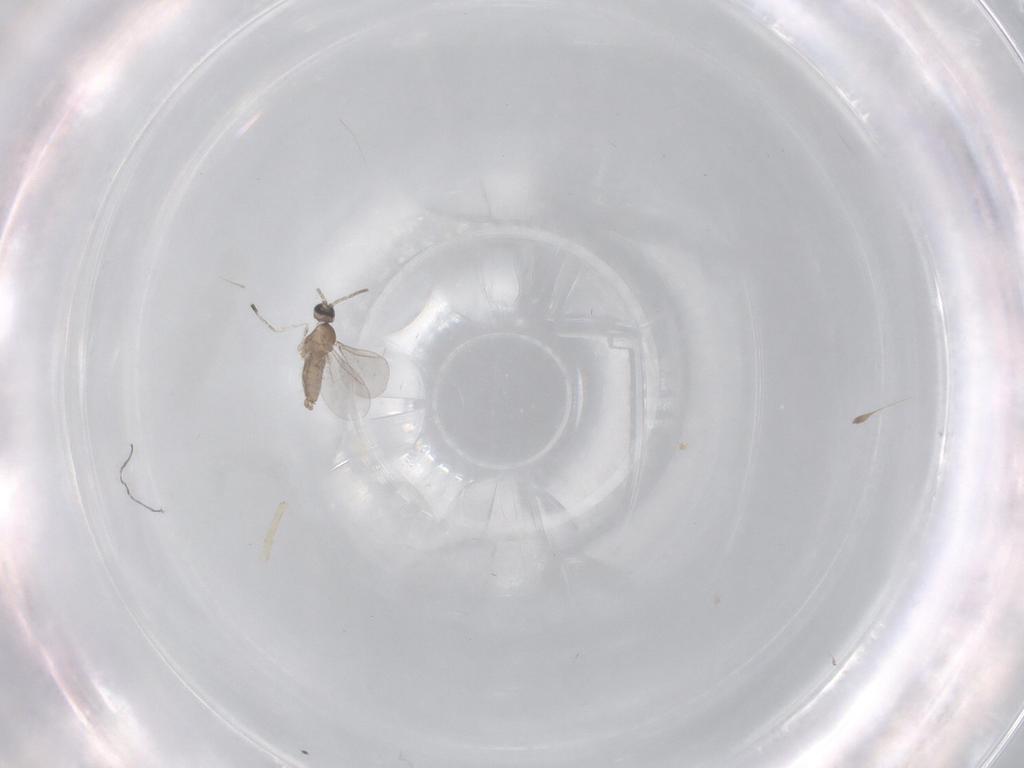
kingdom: Animalia
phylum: Arthropoda
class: Insecta
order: Diptera
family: Cecidomyiidae
